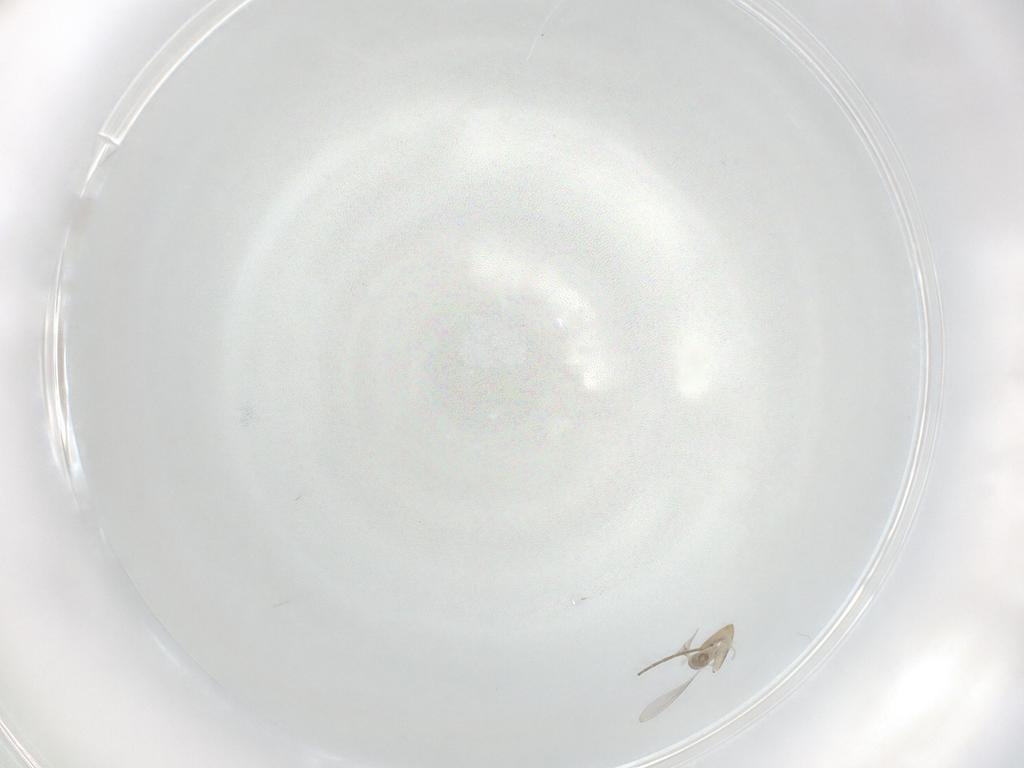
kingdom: Animalia
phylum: Arthropoda
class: Insecta
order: Diptera
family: Cecidomyiidae
